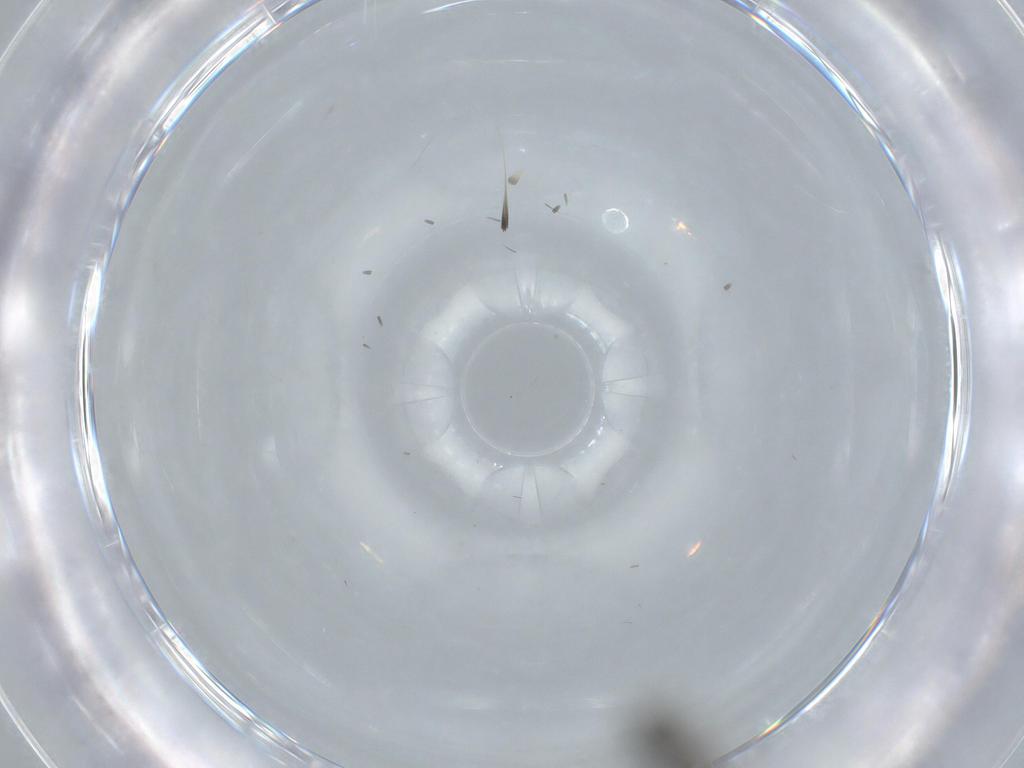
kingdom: Animalia
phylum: Arthropoda
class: Insecta
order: Hymenoptera
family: Scelionidae
